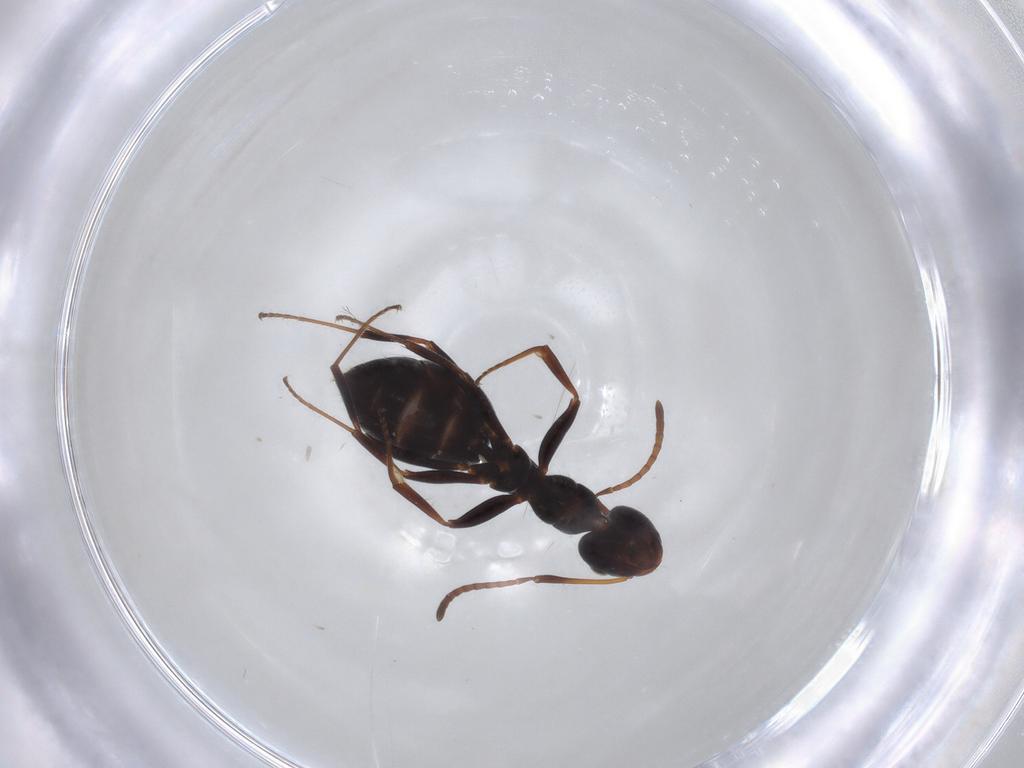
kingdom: Animalia
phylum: Arthropoda
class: Insecta
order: Hymenoptera
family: Formicidae
